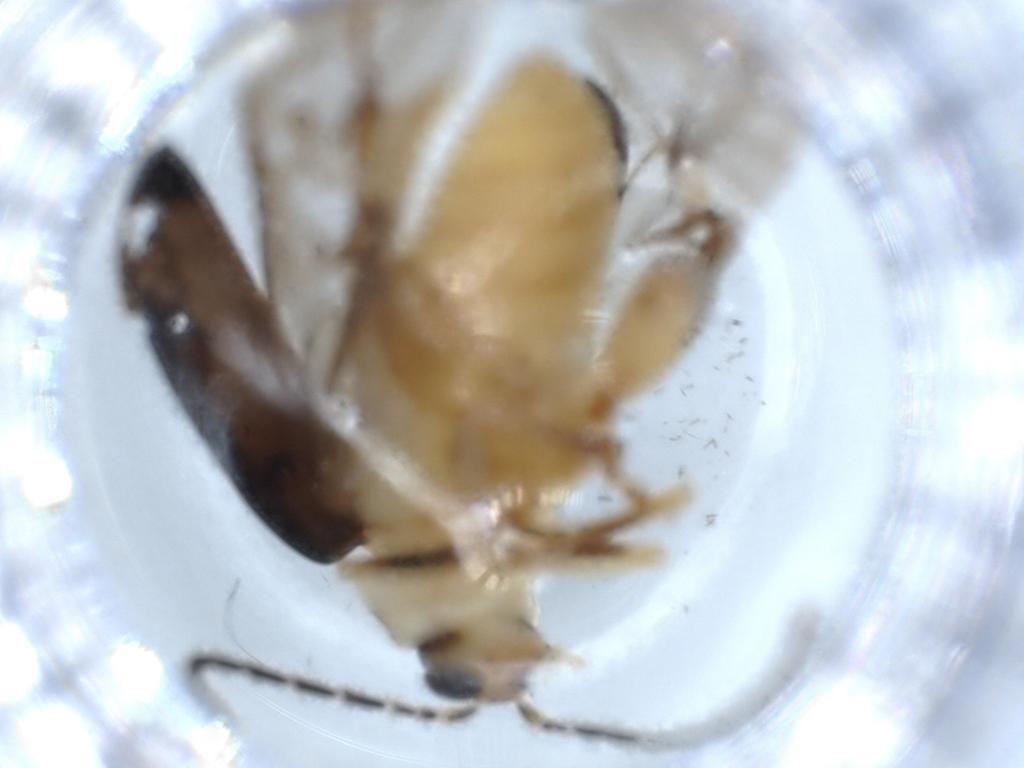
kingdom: Animalia
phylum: Arthropoda
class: Insecta
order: Coleoptera
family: Chrysomelidae
